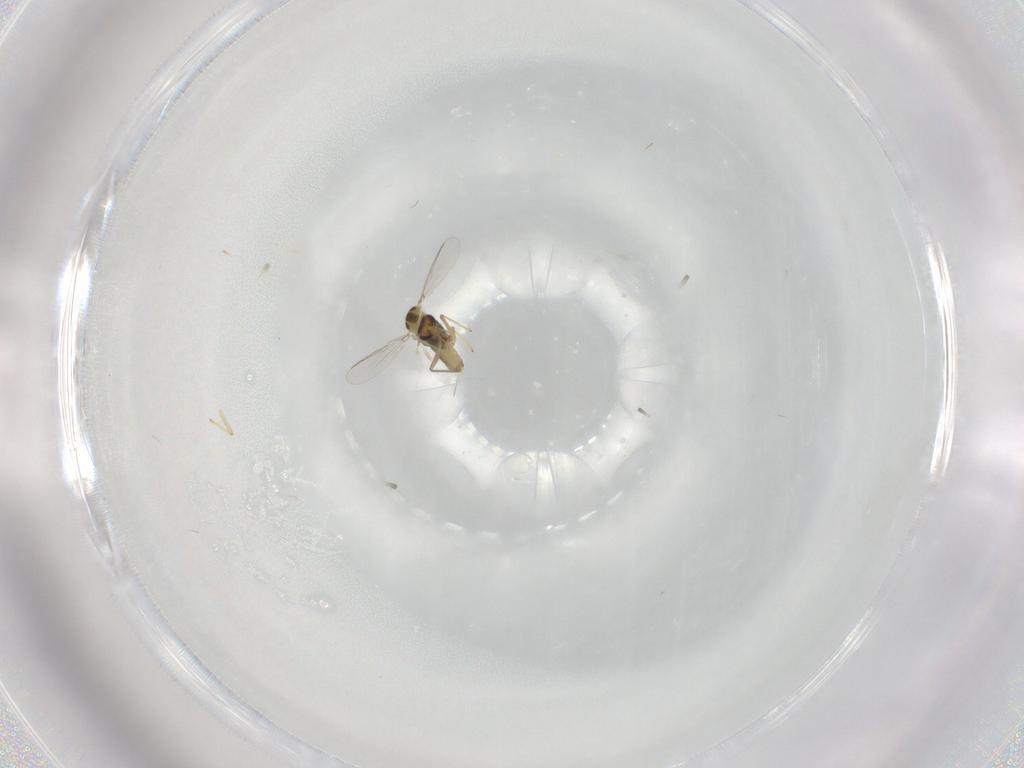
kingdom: Animalia
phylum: Arthropoda
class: Insecta
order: Diptera
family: Chironomidae
